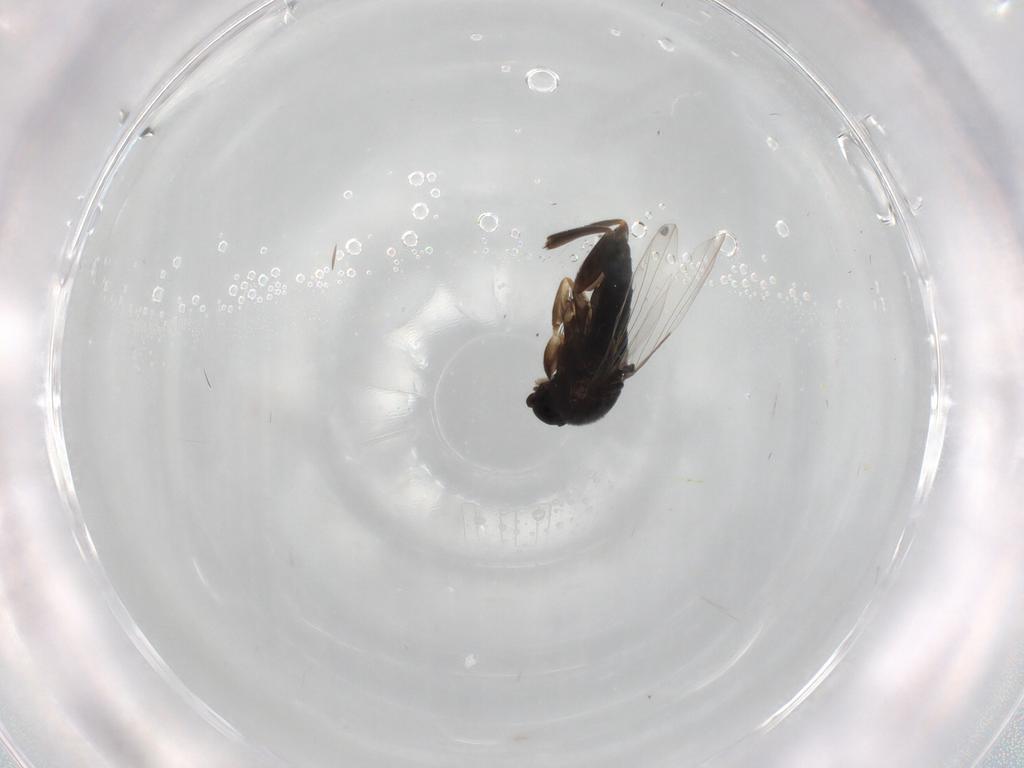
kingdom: Animalia
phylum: Arthropoda
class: Insecta
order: Diptera
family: Phoridae
